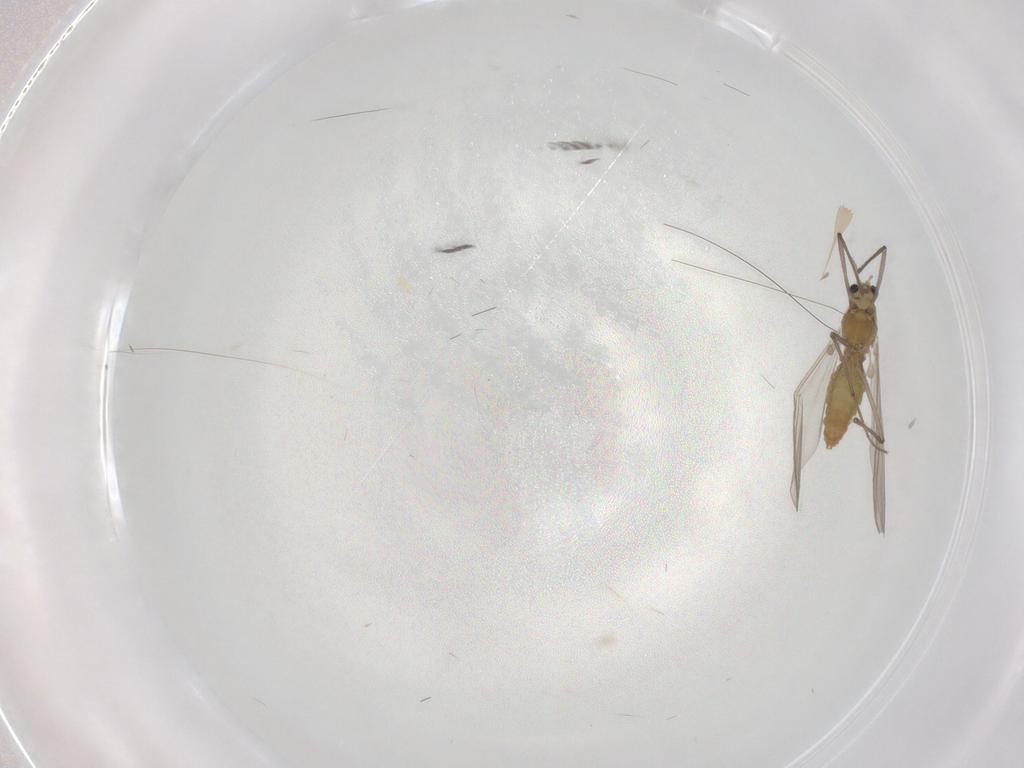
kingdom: Animalia
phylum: Arthropoda
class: Insecta
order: Diptera
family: Chironomidae
